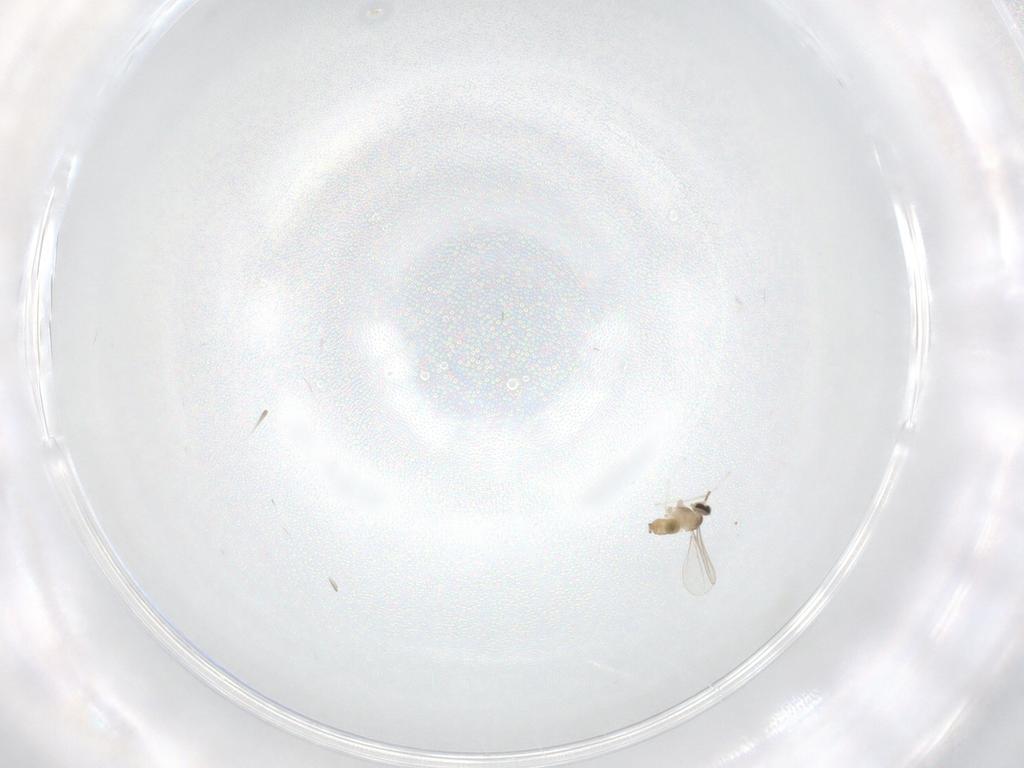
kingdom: Animalia
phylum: Arthropoda
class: Insecta
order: Diptera
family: Cecidomyiidae
